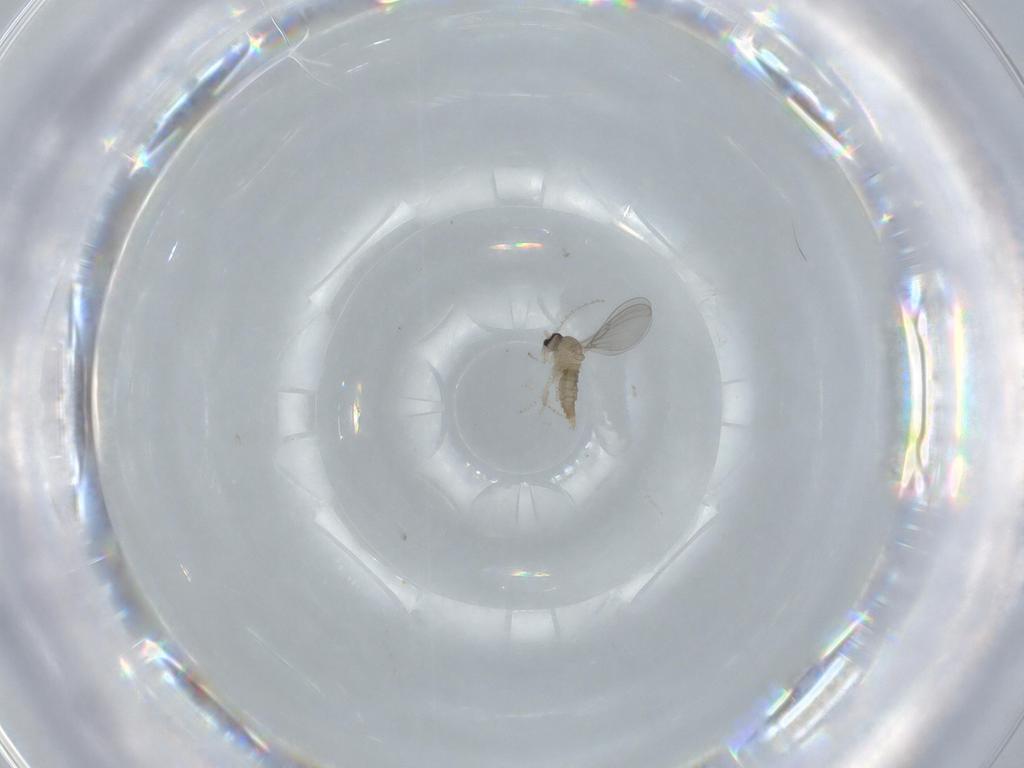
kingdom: Animalia
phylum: Arthropoda
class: Insecta
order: Diptera
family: Cecidomyiidae
